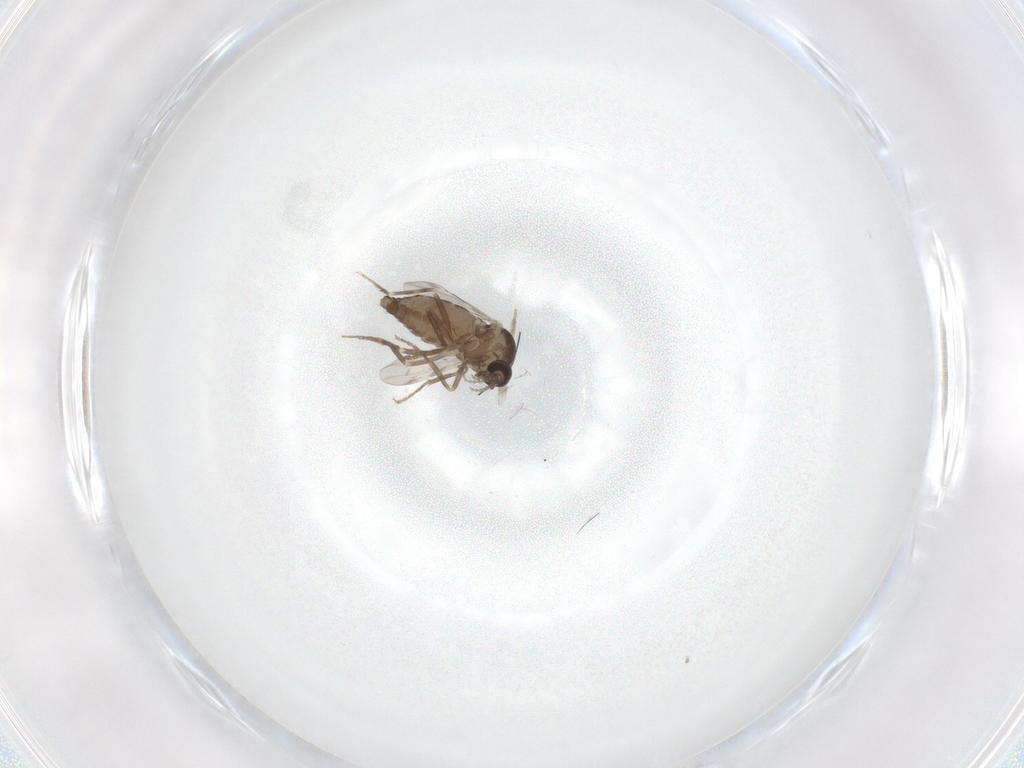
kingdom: Animalia
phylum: Arthropoda
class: Insecta
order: Diptera
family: Ceratopogonidae
